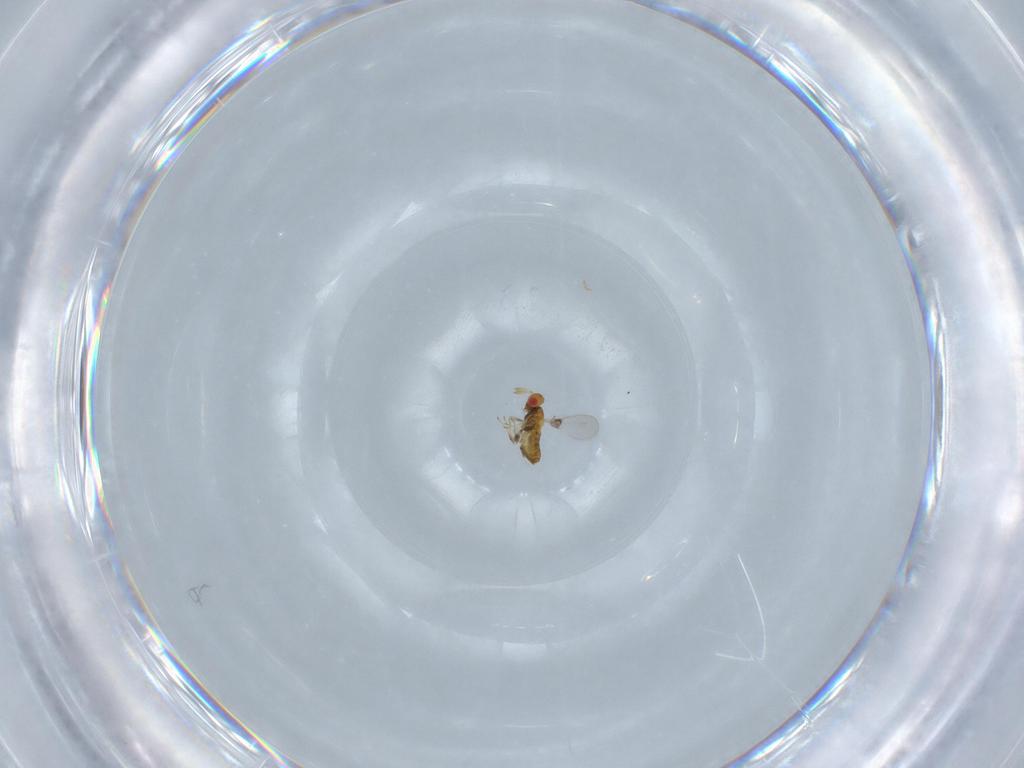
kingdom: Animalia
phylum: Arthropoda
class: Insecta
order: Hymenoptera
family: Trichogrammatidae
